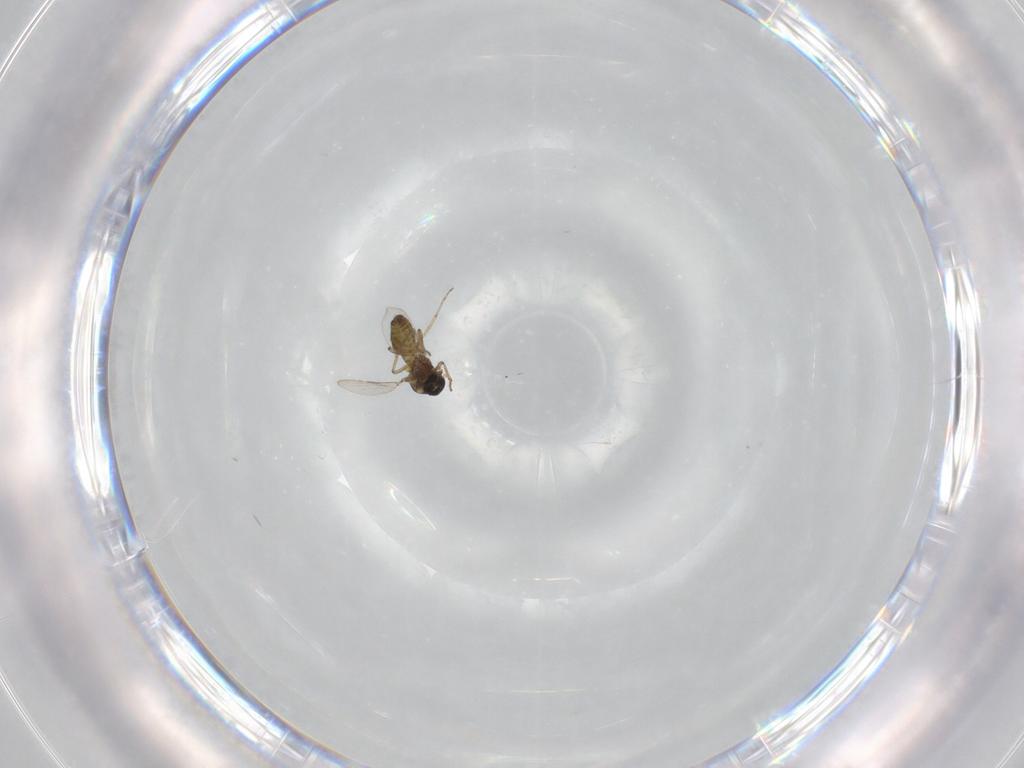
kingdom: Animalia
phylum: Arthropoda
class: Insecta
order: Diptera
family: Ceratopogonidae
